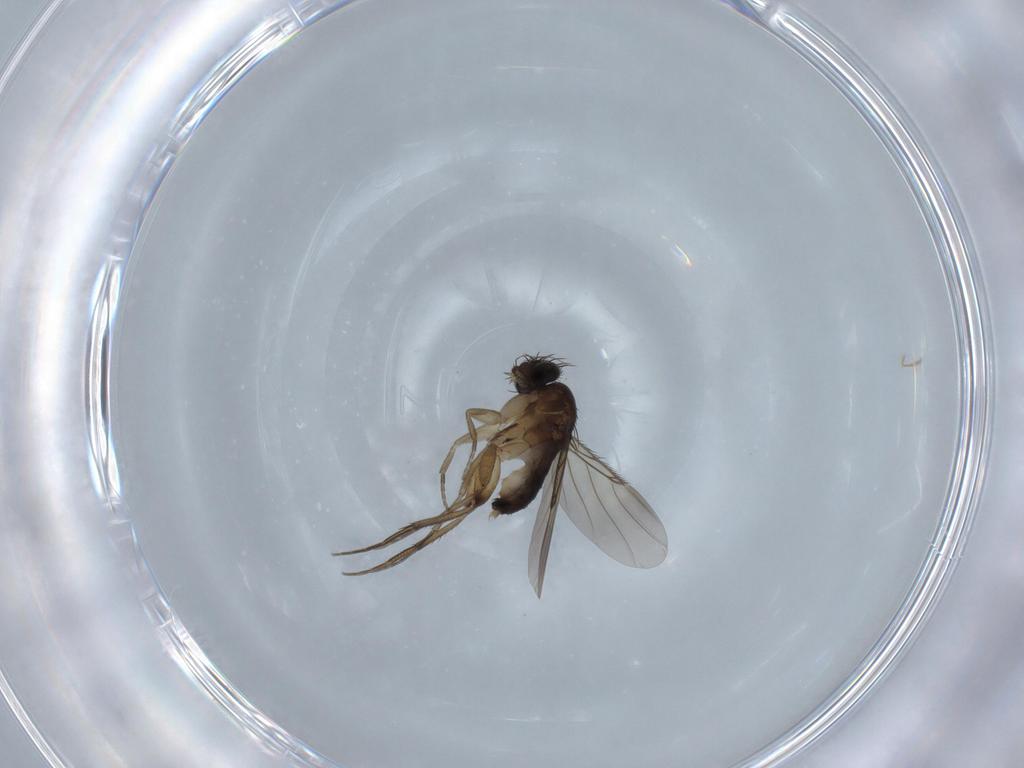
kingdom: Animalia
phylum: Arthropoda
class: Insecta
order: Diptera
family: Phoridae
